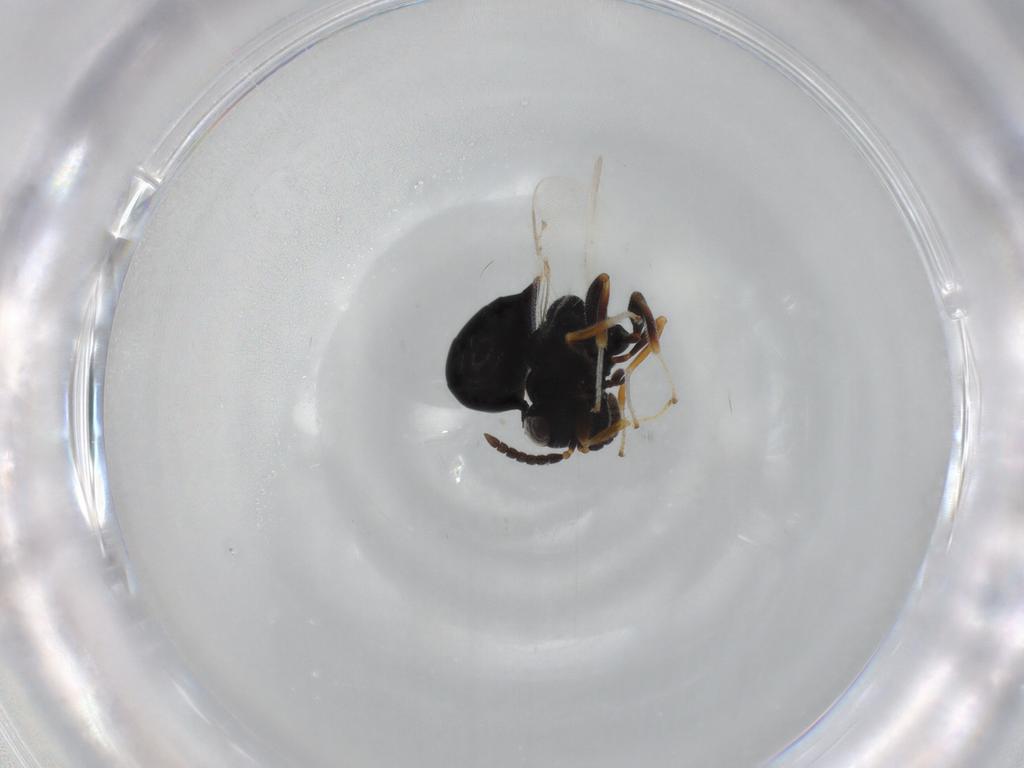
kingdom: Animalia
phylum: Arthropoda
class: Insecta
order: Hymenoptera
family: Eurytomidae
